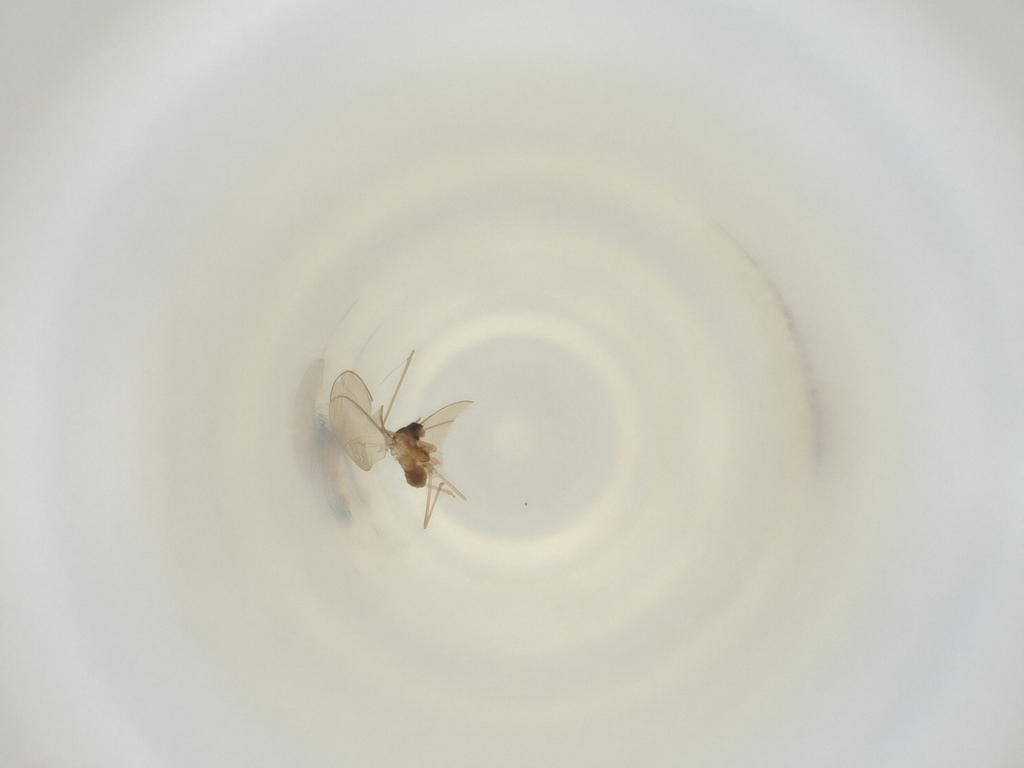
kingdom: Animalia
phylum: Arthropoda
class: Insecta
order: Diptera
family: Cecidomyiidae
